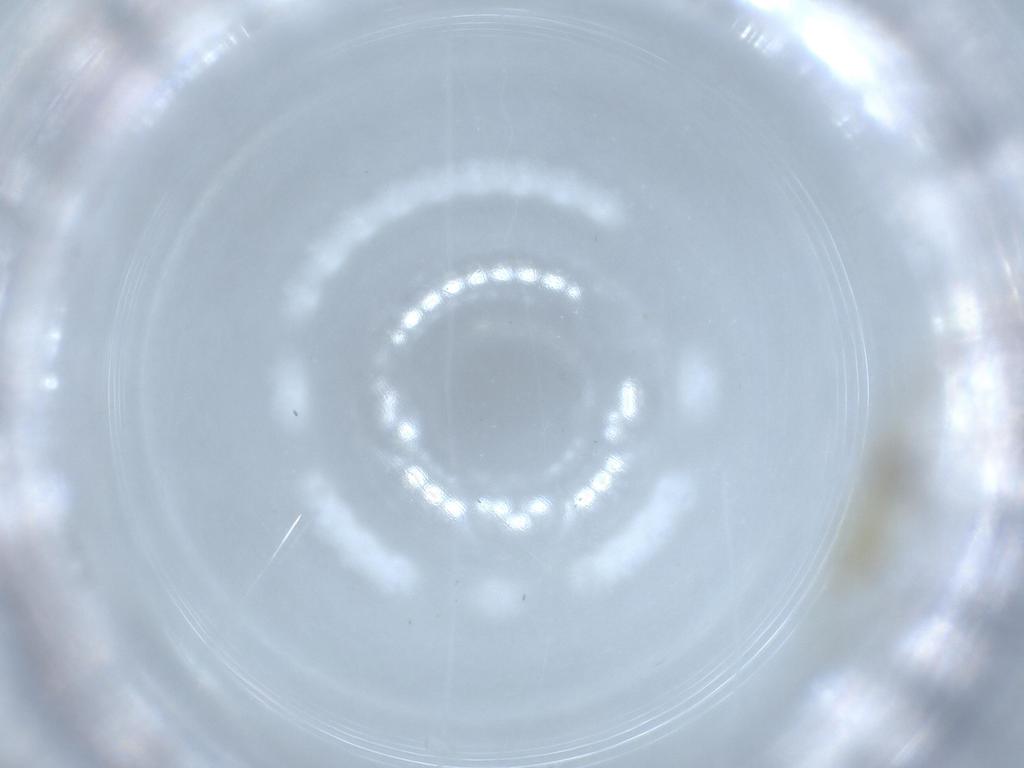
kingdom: Animalia
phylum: Arthropoda
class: Insecta
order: Diptera
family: Chironomidae
